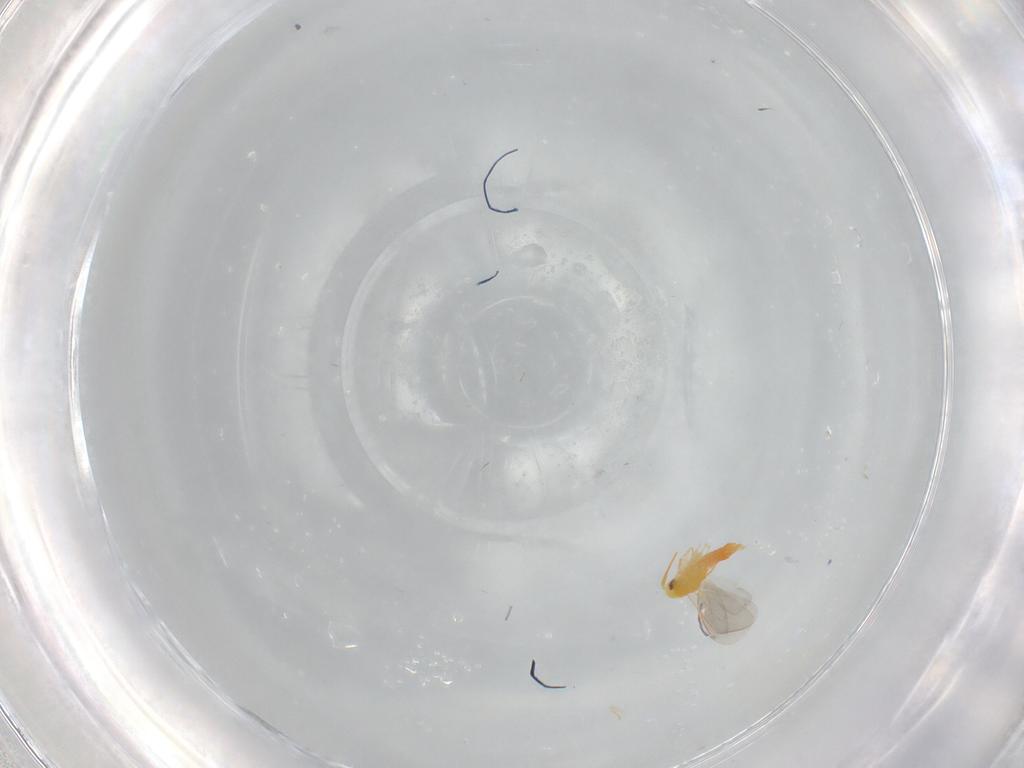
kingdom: Animalia
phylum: Arthropoda
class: Insecta
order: Hemiptera
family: Aleyrodidae
